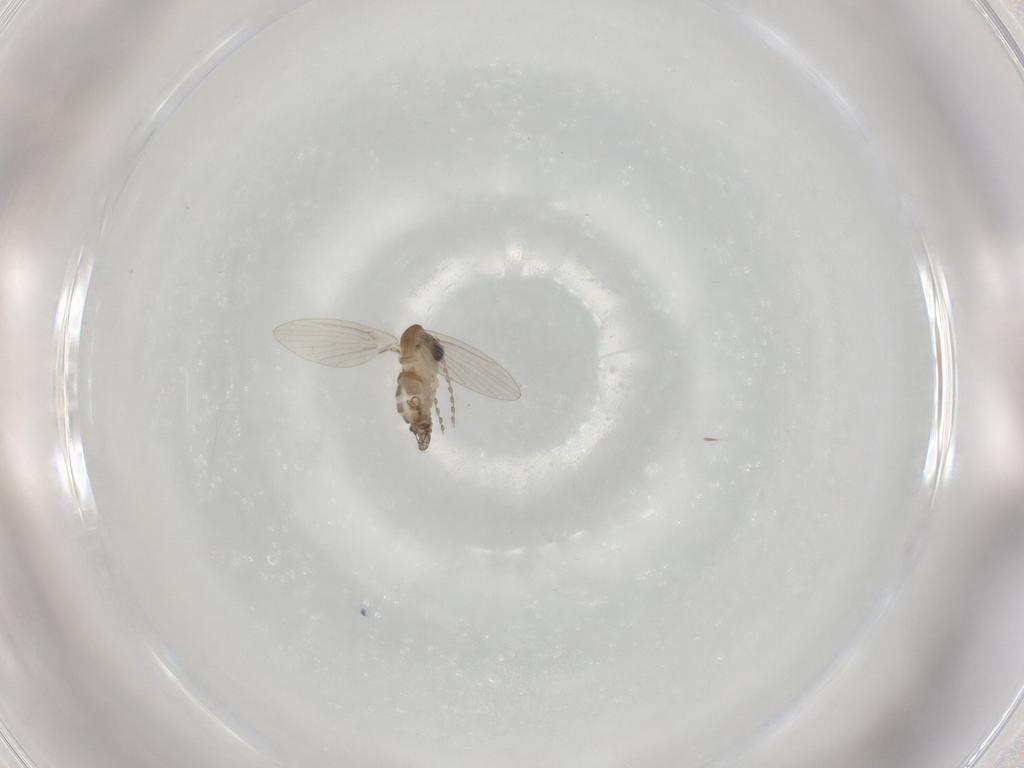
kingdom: Animalia
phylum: Arthropoda
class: Insecta
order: Diptera
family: Psychodidae
